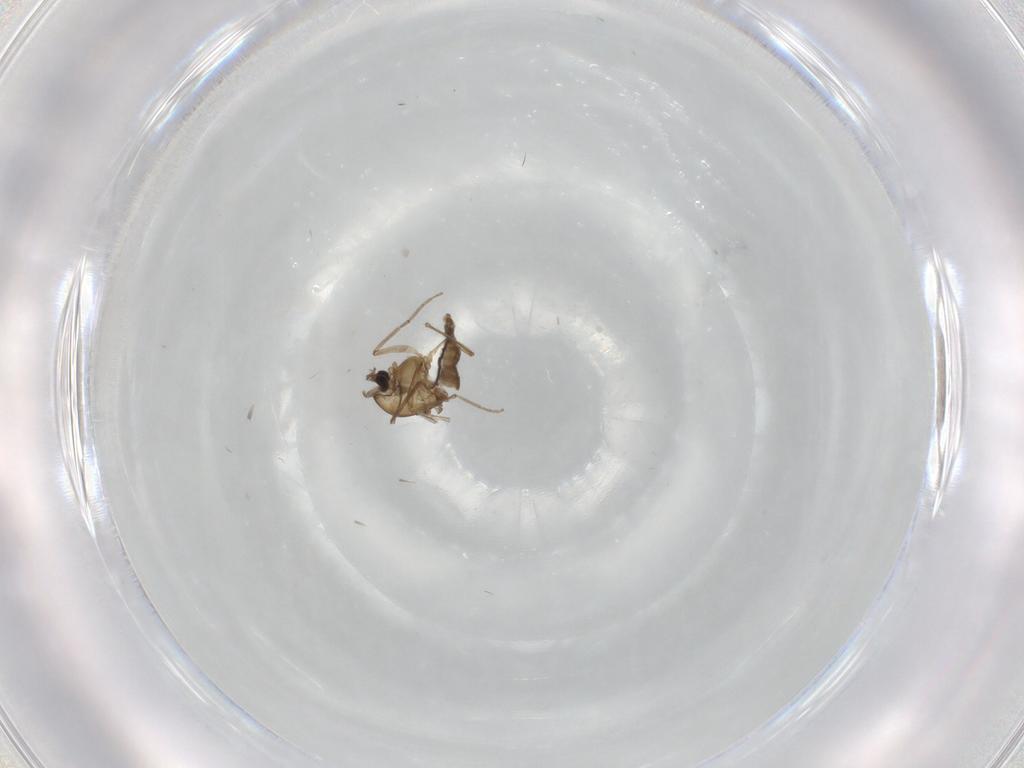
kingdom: Animalia
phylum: Arthropoda
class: Insecta
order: Diptera
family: Chironomidae
